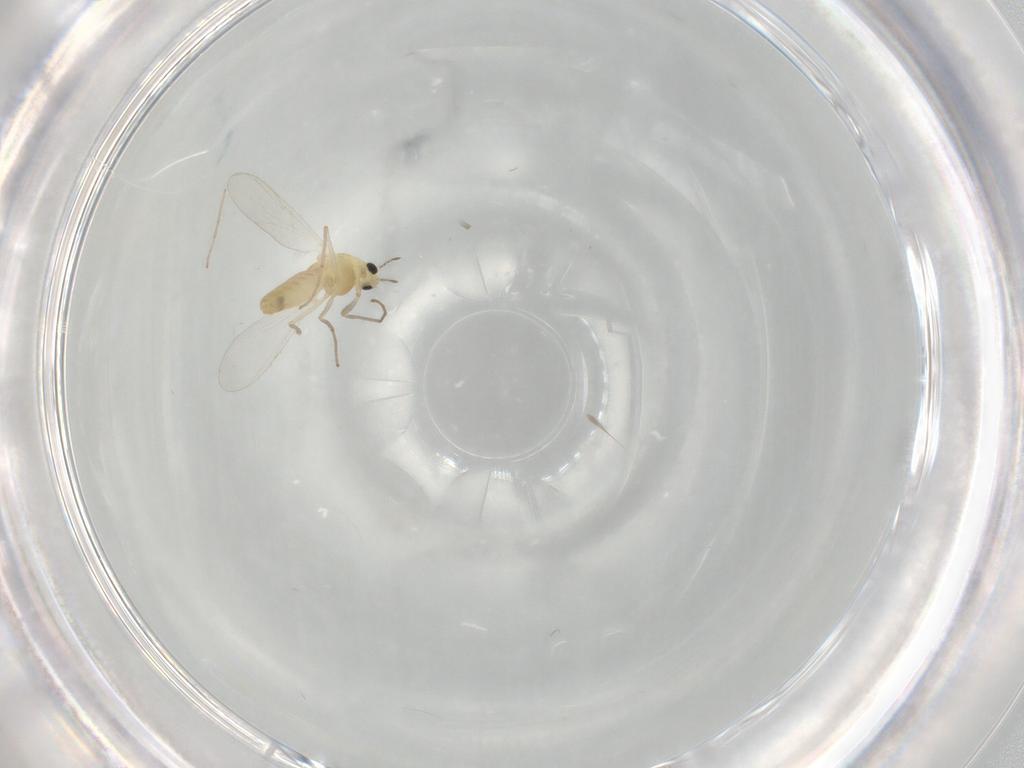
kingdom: Animalia
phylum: Arthropoda
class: Insecta
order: Diptera
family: Chironomidae
